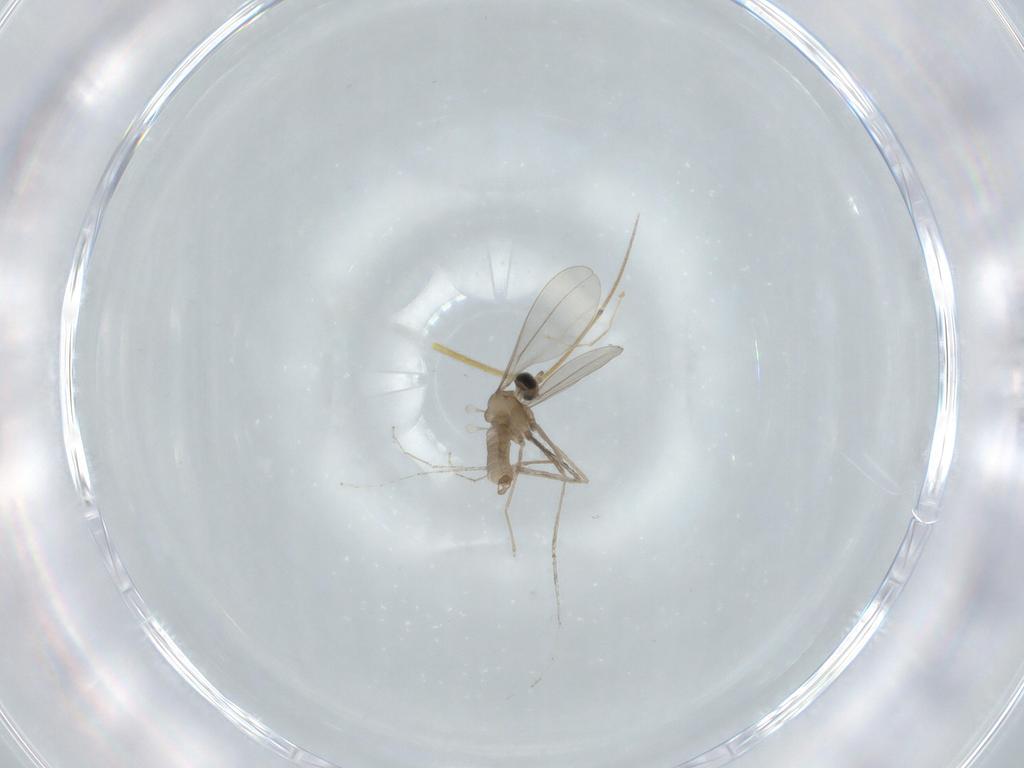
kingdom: Animalia
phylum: Arthropoda
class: Insecta
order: Diptera
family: Cecidomyiidae
